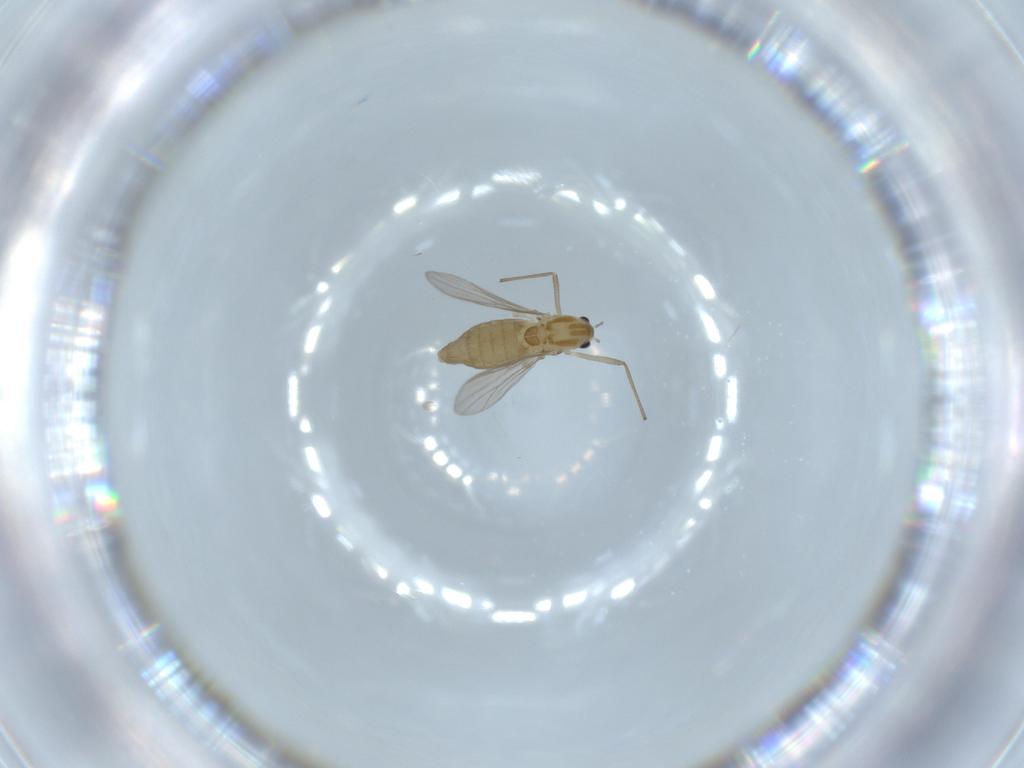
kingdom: Animalia
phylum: Arthropoda
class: Insecta
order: Diptera
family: Chironomidae
